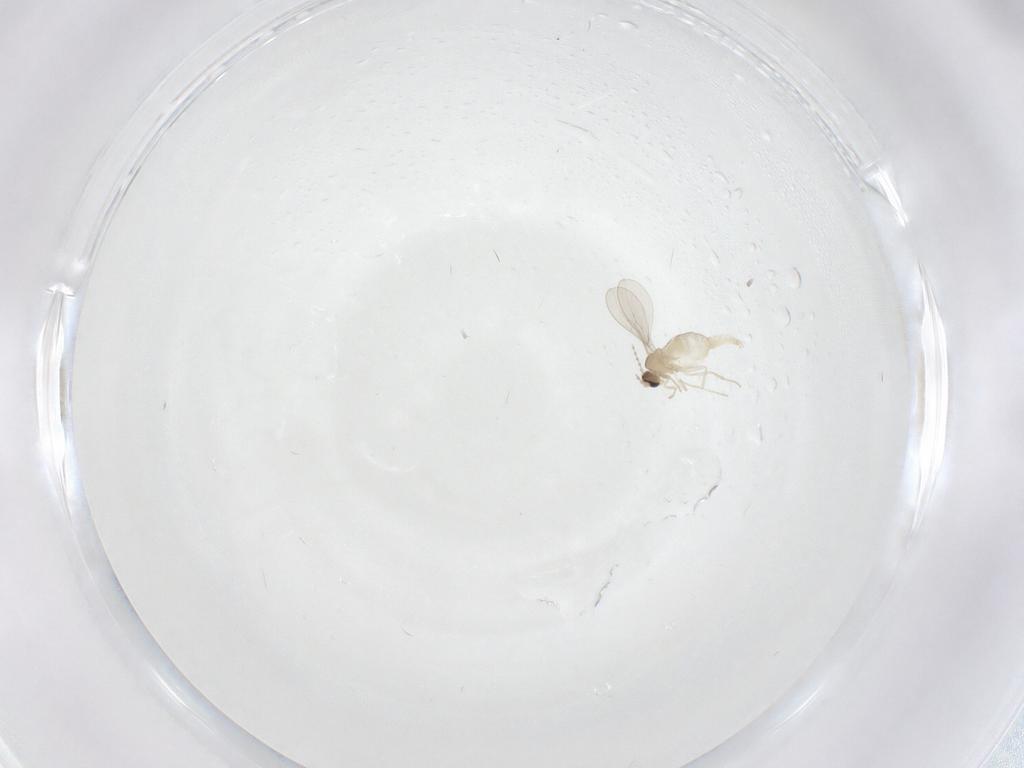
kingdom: Animalia
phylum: Arthropoda
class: Insecta
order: Diptera
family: Cecidomyiidae
